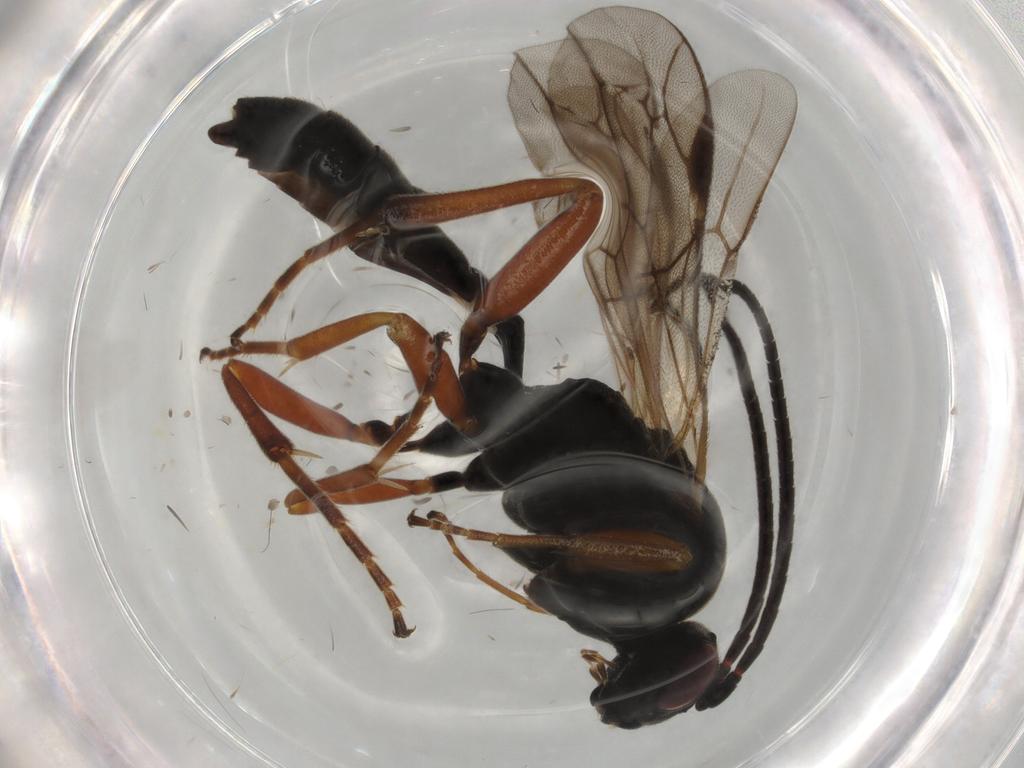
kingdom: Animalia
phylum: Arthropoda
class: Insecta
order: Hymenoptera
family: Ichneumonidae
